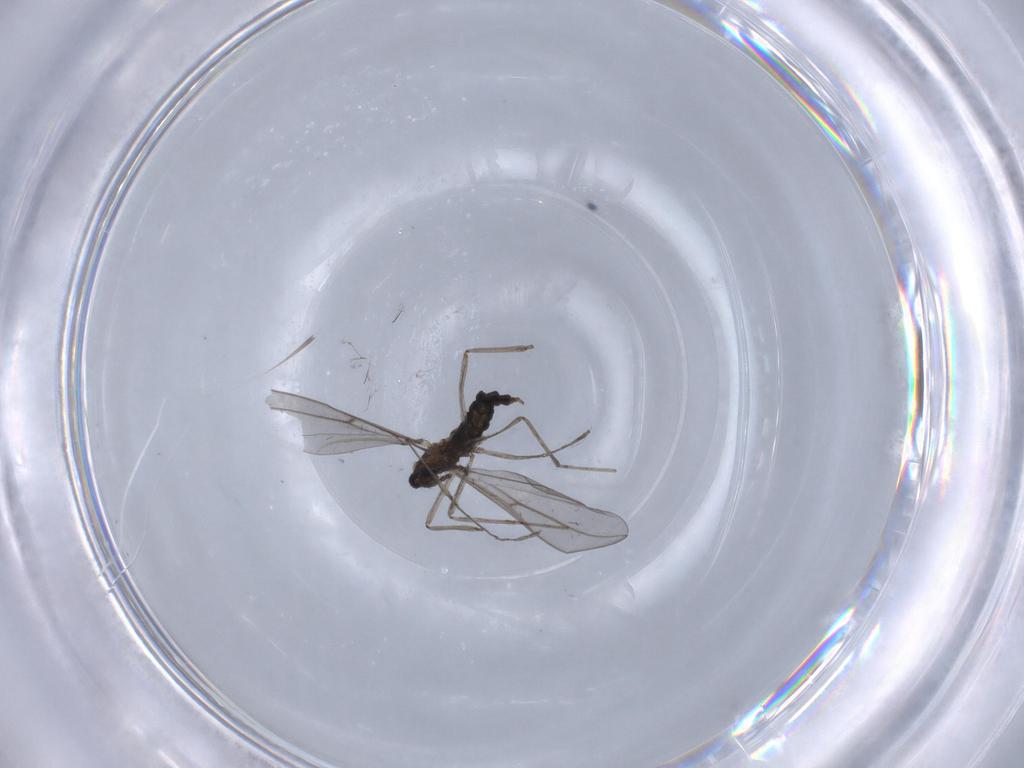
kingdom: Animalia
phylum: Arthropoda
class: Insecta
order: Diptera
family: Cecidomyiidae
